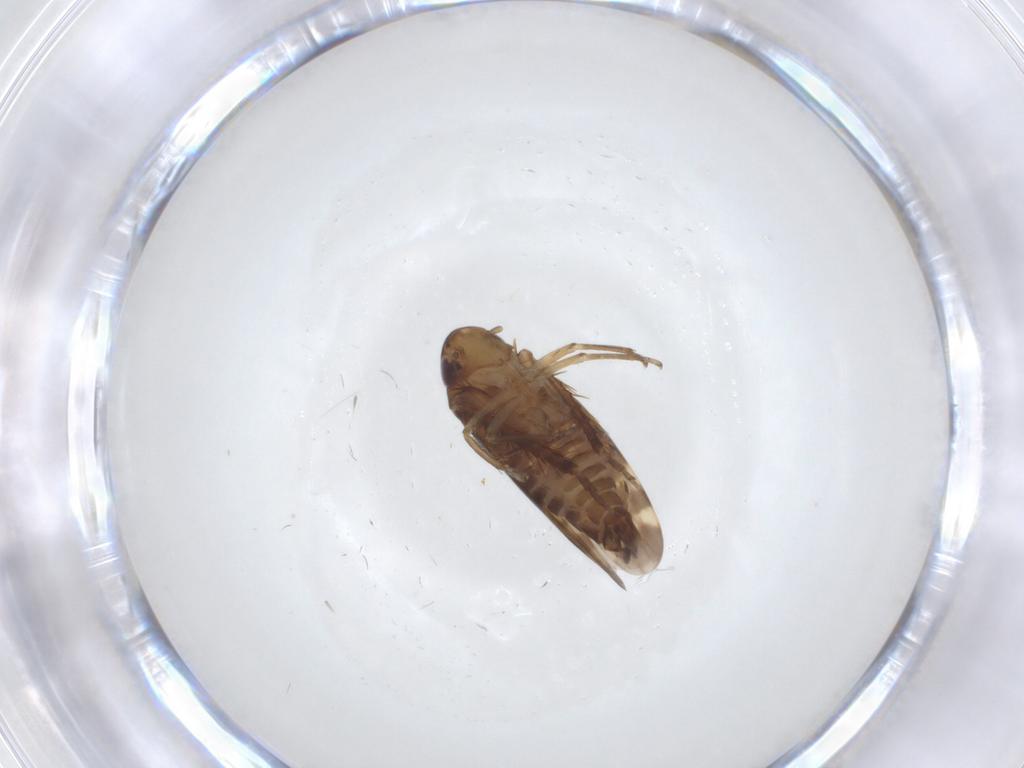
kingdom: Animalia
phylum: Arthropoda
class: Insecta
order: Hemiptera
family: Cicadellidae
